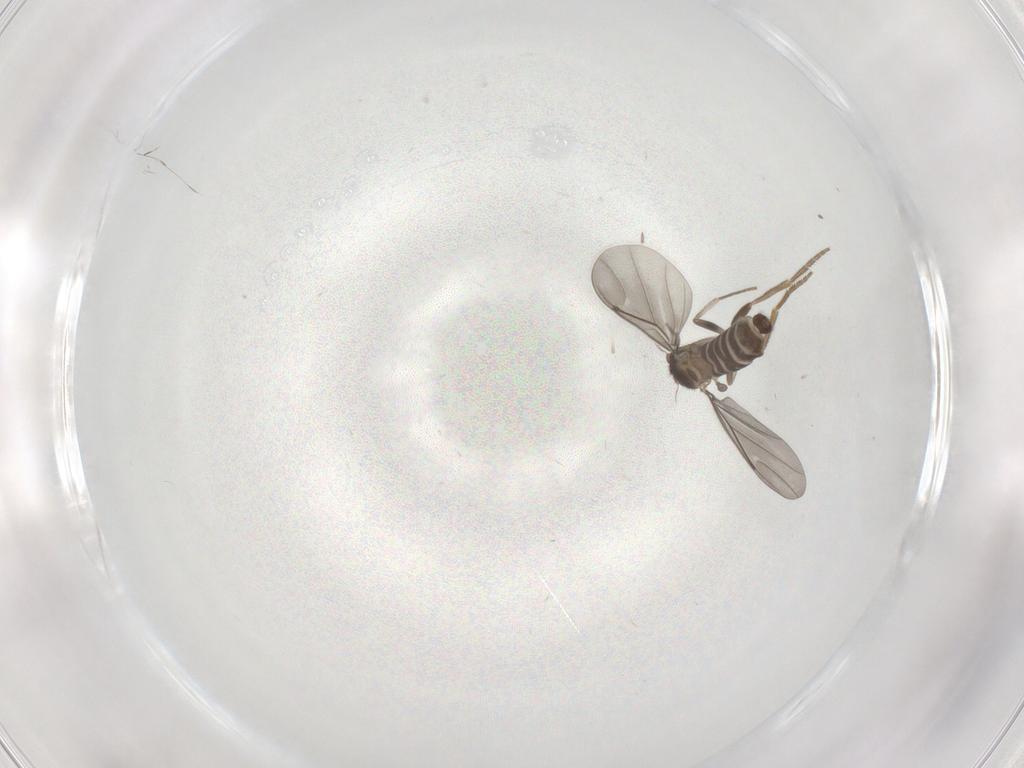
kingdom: Animalia
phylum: Arthropoda
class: Insecta
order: Diptera
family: Phoridae
